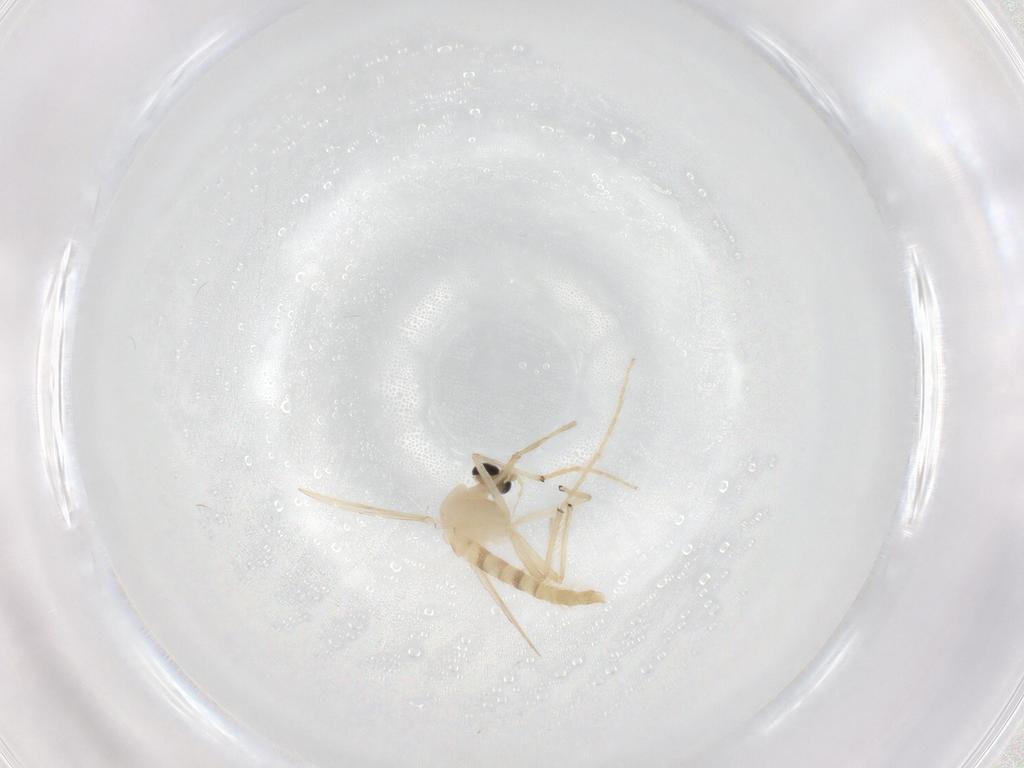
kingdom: Animalia
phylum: Arthropoda
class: Insecta
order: Diptera
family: Chironomidae
